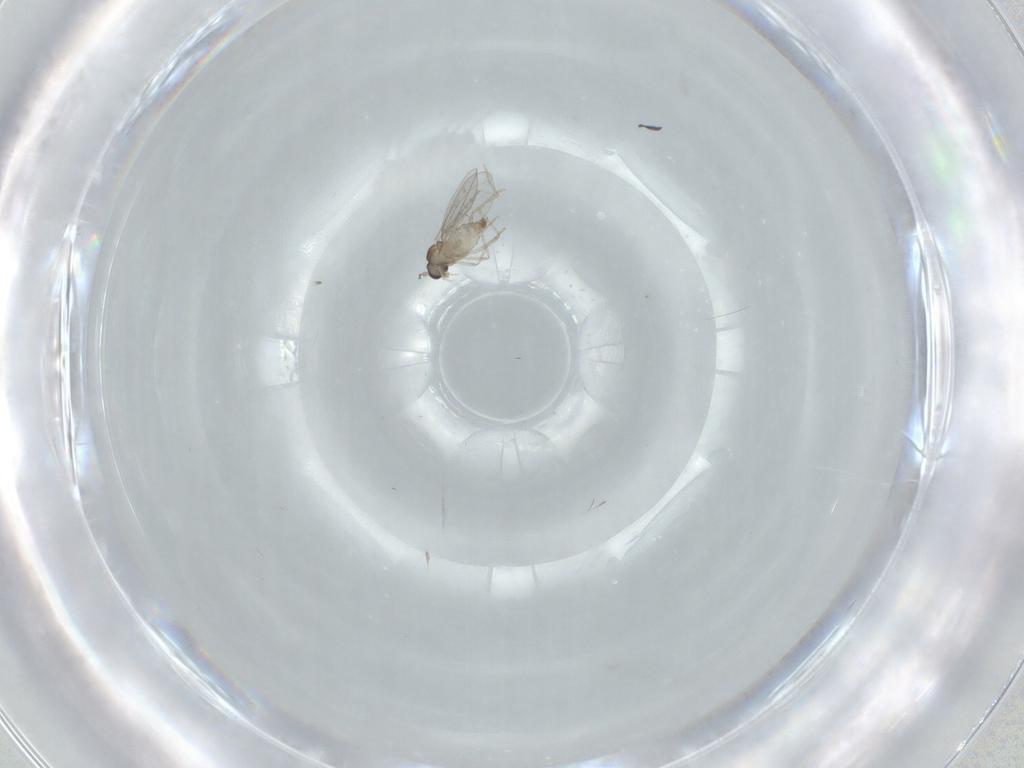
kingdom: Animalia
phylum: Arthropoda
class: Insecta
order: Diptera
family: Cecidomyiidae
